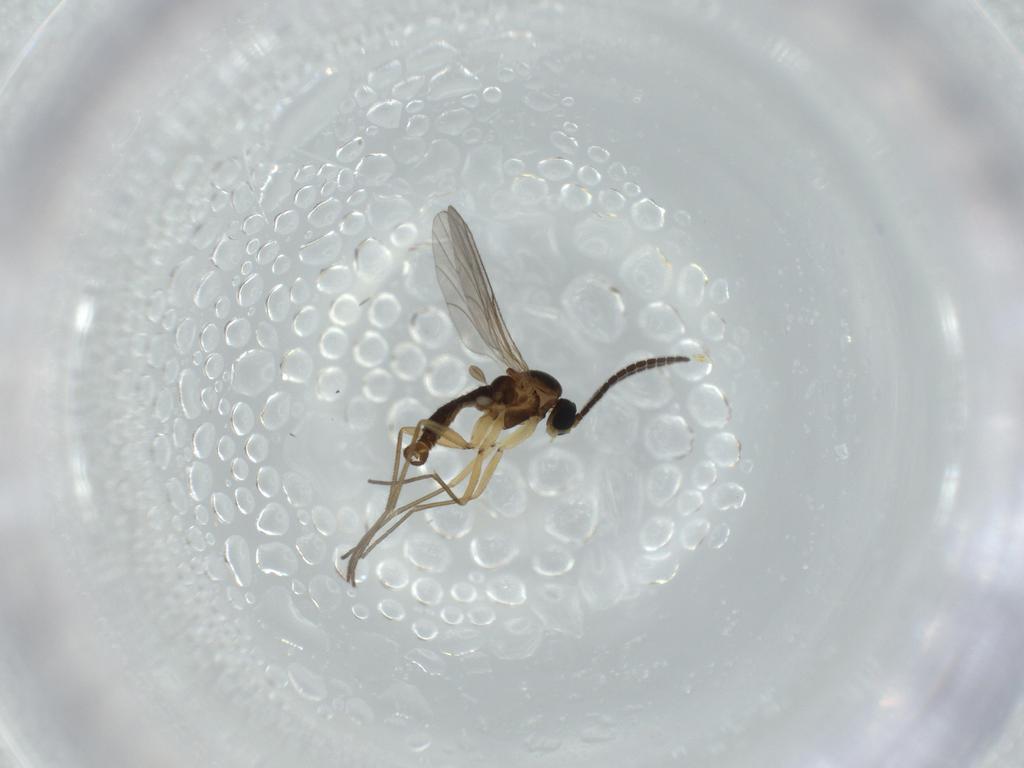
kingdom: Animalia
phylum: Arthropoda
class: Insecta
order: Diptera
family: Sciaridae
